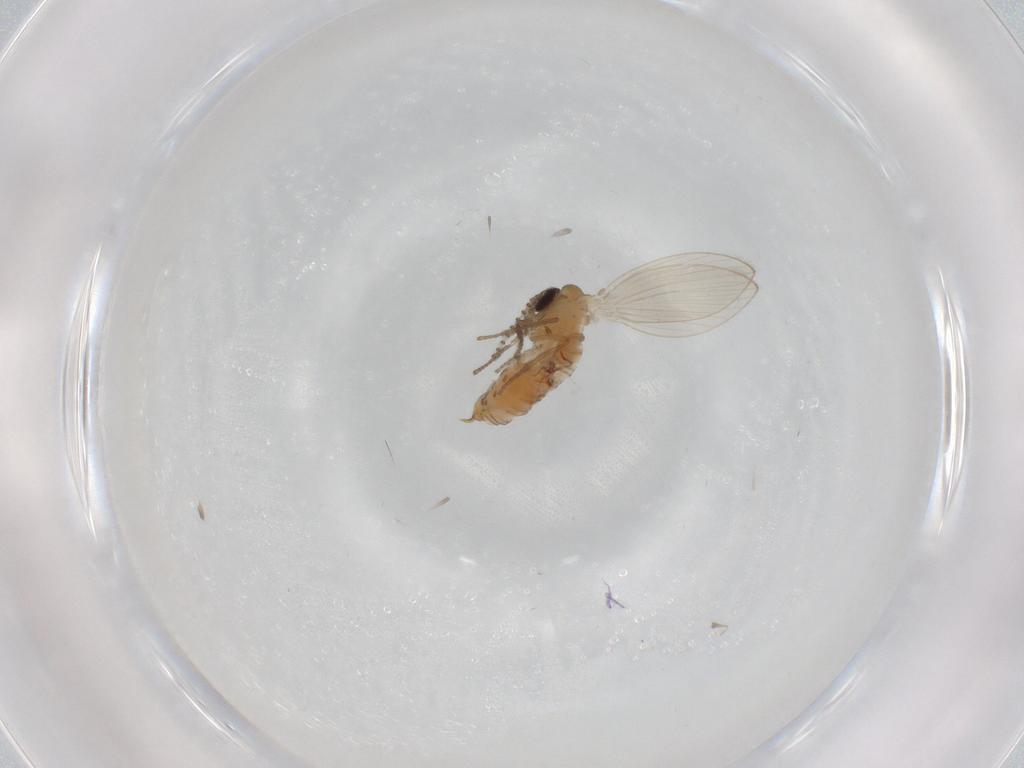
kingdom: Animalia
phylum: Arthropoda
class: Insecta
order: Diptera
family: Psychodidae
